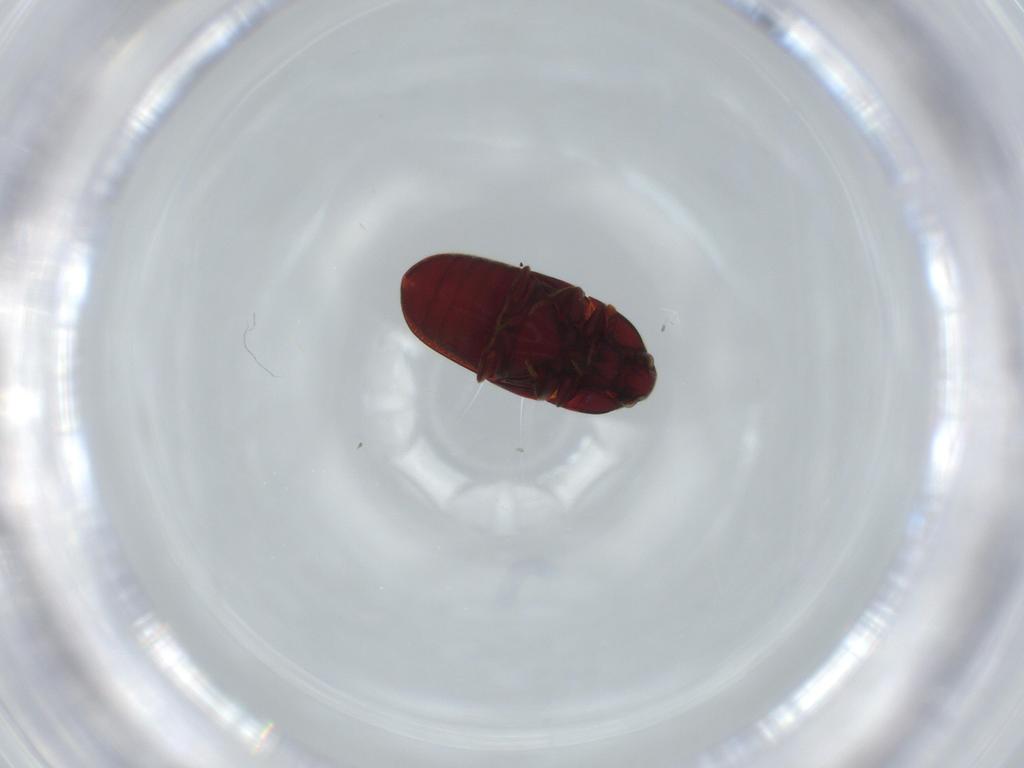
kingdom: Animalia
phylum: Arthropoda
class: Insecta
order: Coleoptera
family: Throscidae
